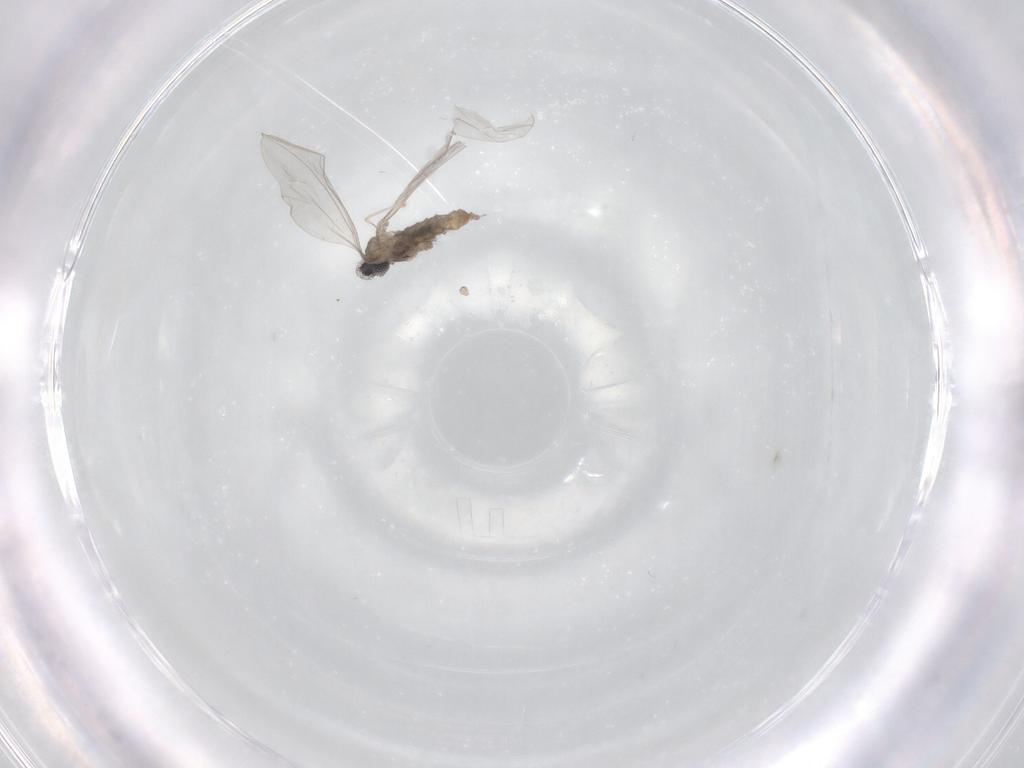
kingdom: Animalia
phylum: Arthropoda
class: Insecta
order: Diptera
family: Cecidomyiidae
